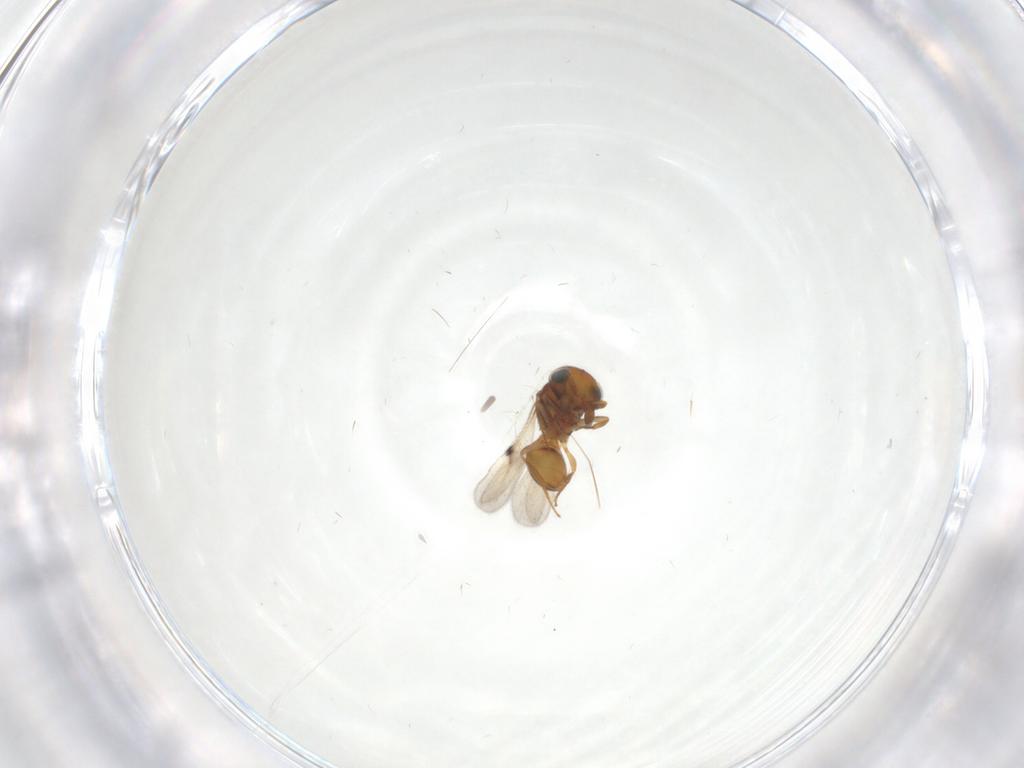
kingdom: Animalia
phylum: Arthropoda
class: Insecta
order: Hymenoptera
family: Scelionidae
